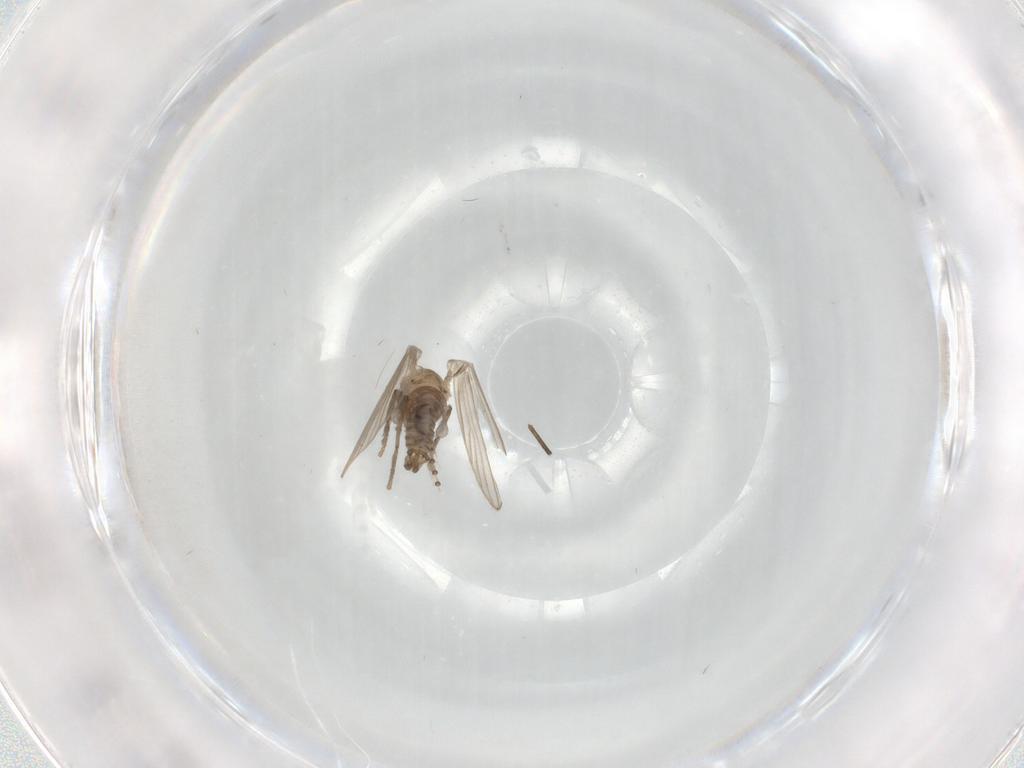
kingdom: Animalia
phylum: Arthropoda
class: Insecta
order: Diptera
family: Psychodidae
